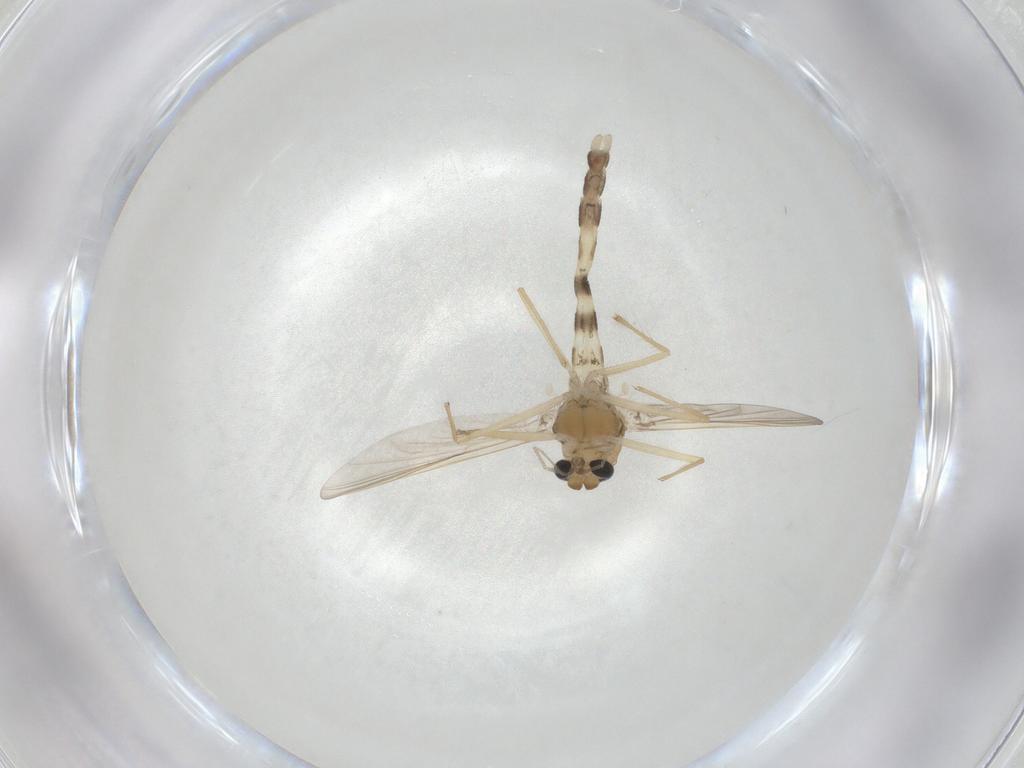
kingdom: Animalia
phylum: Arthropoda
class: Insecta
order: Diptera
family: Chironomidae
